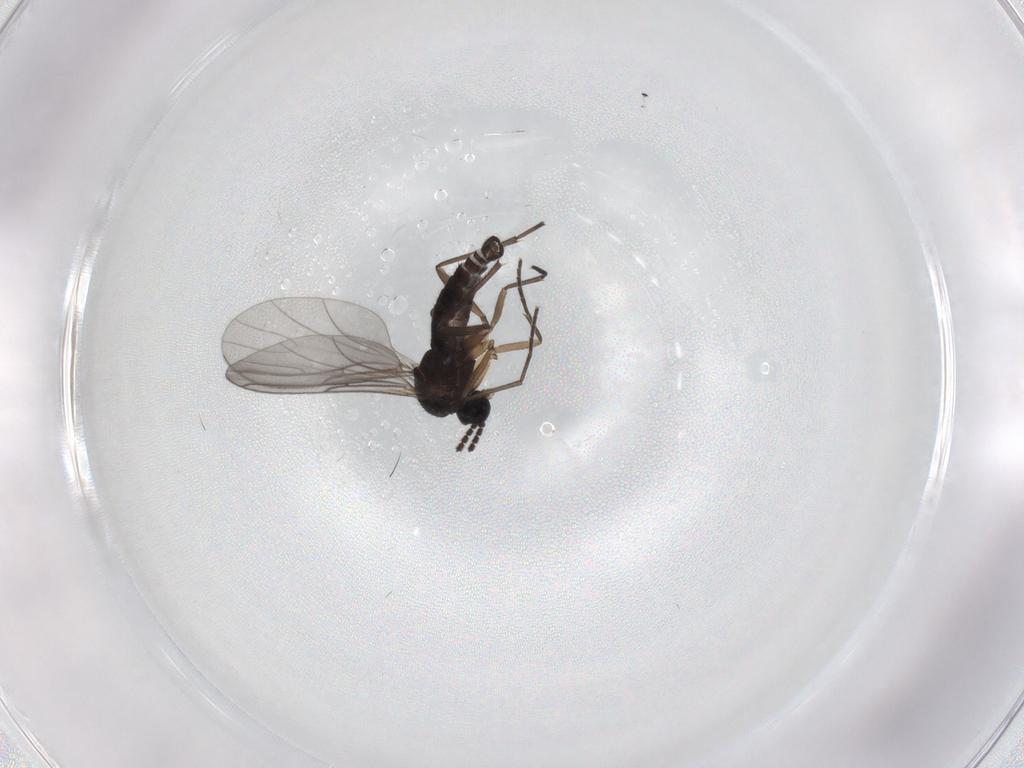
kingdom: Animalia
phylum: Arthropoda
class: Insecta
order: Diptera
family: Sciaridae
